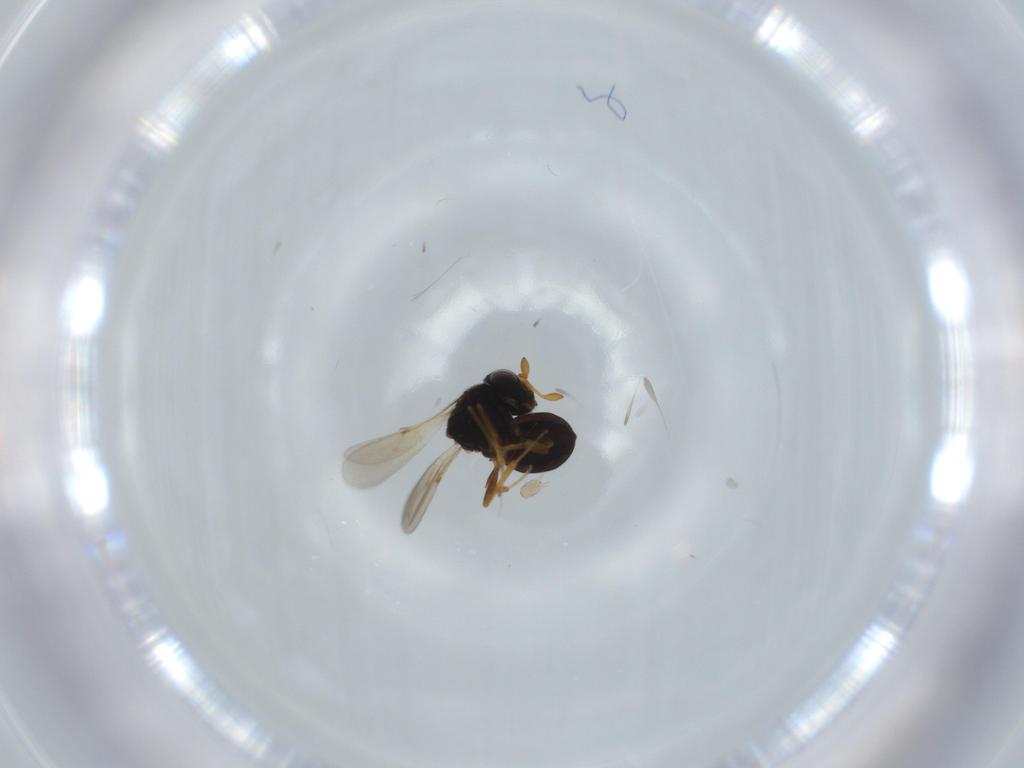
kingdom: Animalia
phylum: Arthropoda
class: Insecta
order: Hymenoptera
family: Scelionidae
